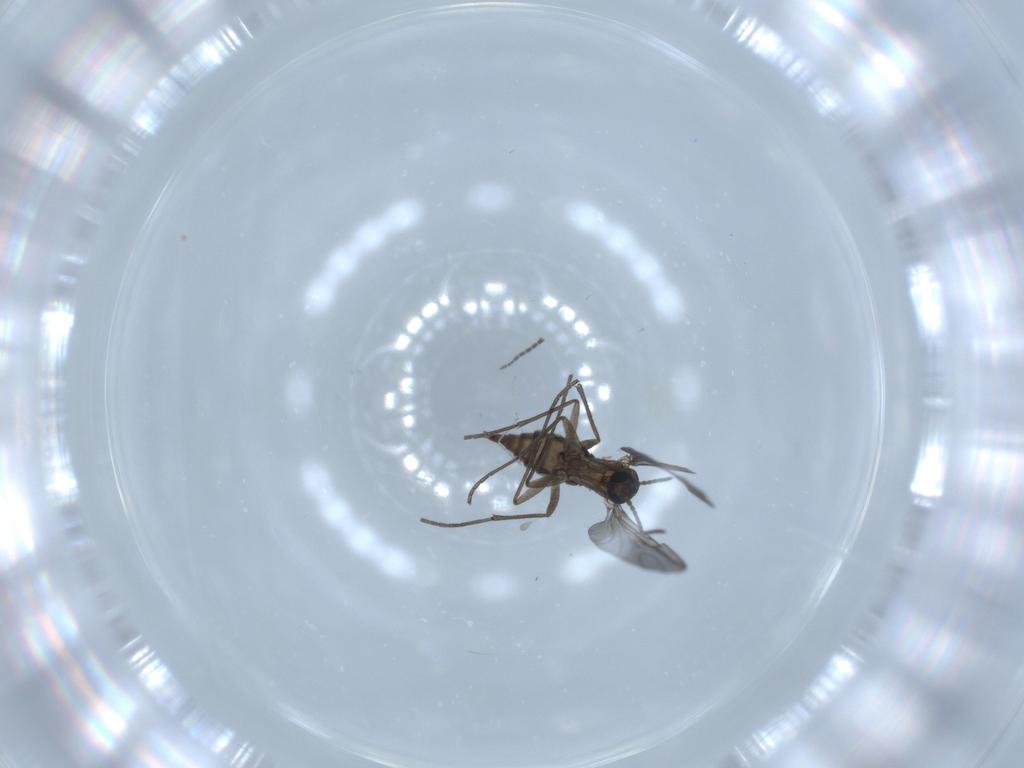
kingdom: Animalia
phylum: Arthropoda
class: Insecta
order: Diptera
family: Sciaridae
